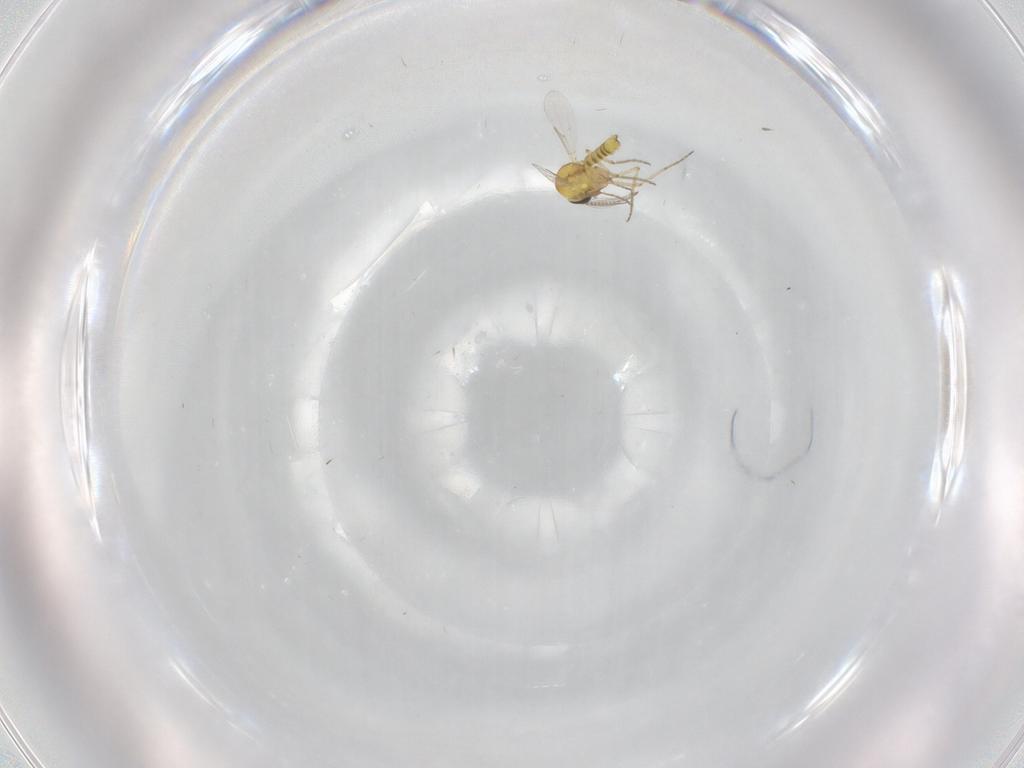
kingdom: Animalia
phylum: Arthropoda
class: Insecta
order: Diptera
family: Ceratopogonidae
